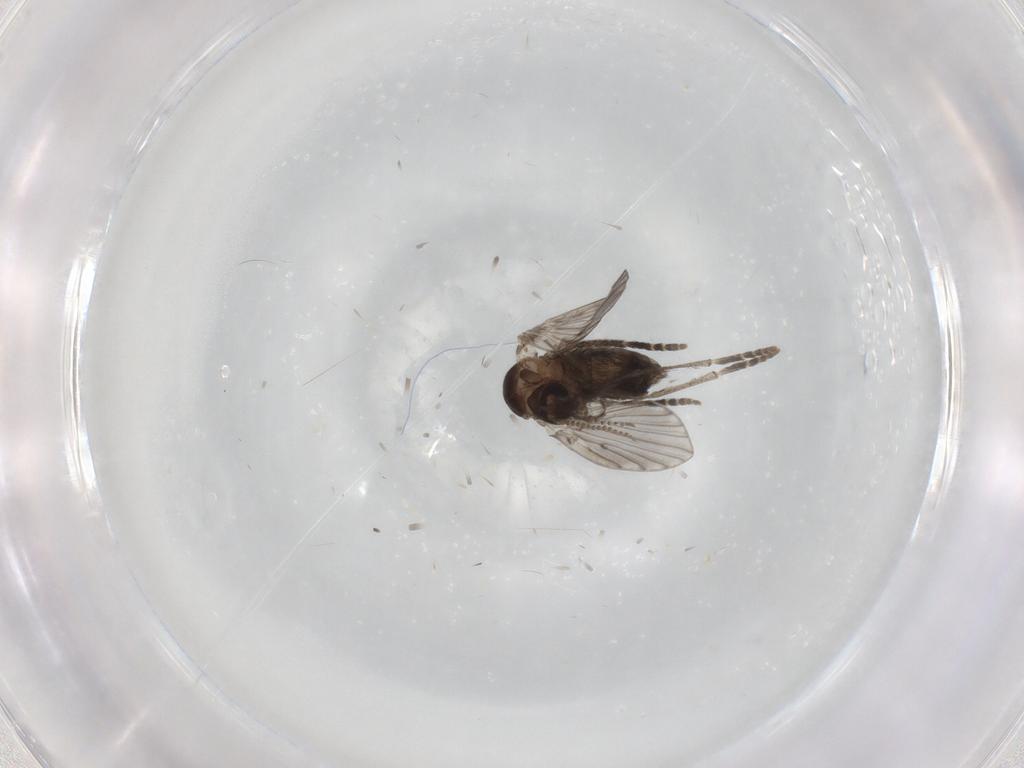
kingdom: Animalia
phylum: Arthropoda
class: Insecta
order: Diptera
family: Psychodidae
